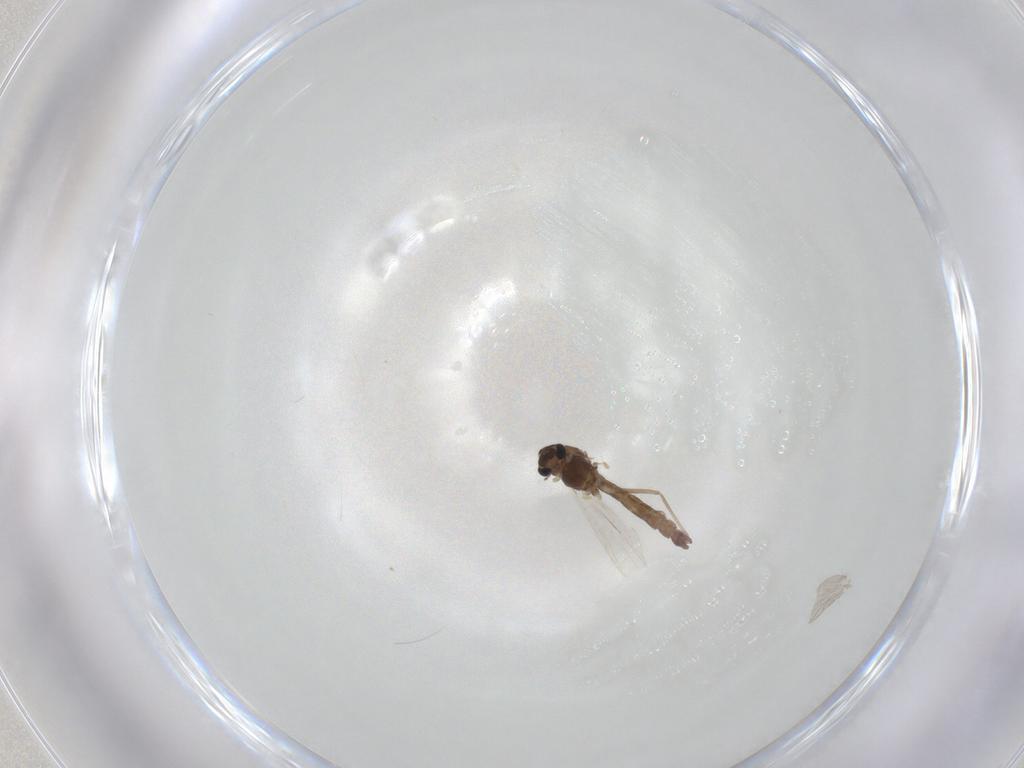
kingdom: Animalia
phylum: Arthropoda
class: Insecta
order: Diptera
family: Chironomidae
